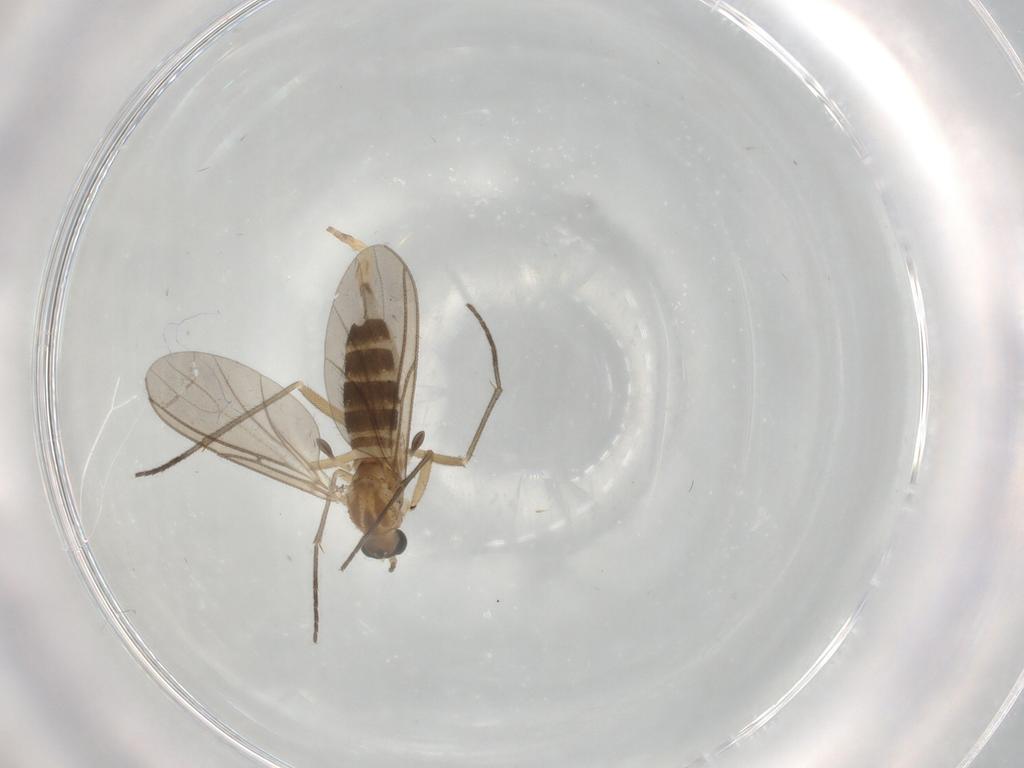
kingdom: Animalia
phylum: Arthropoda
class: Insecta
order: Diptera
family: Sciaridae
